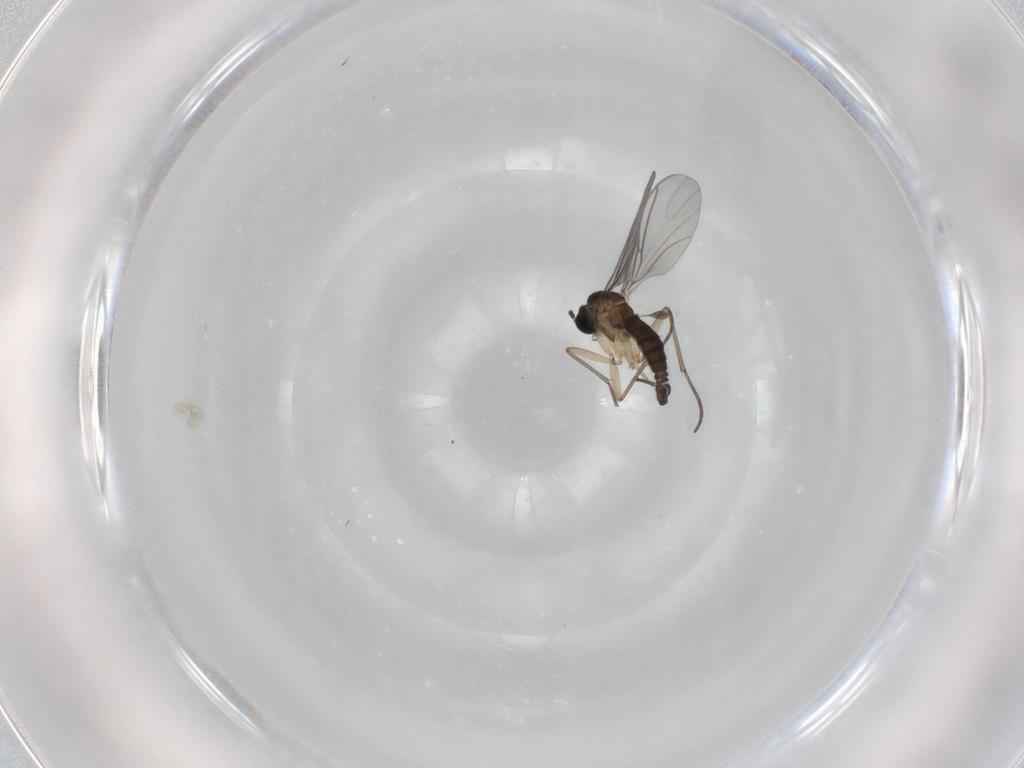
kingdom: Animalia
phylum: Arthropoda
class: Insecta
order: Diptera
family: Sciaridae
